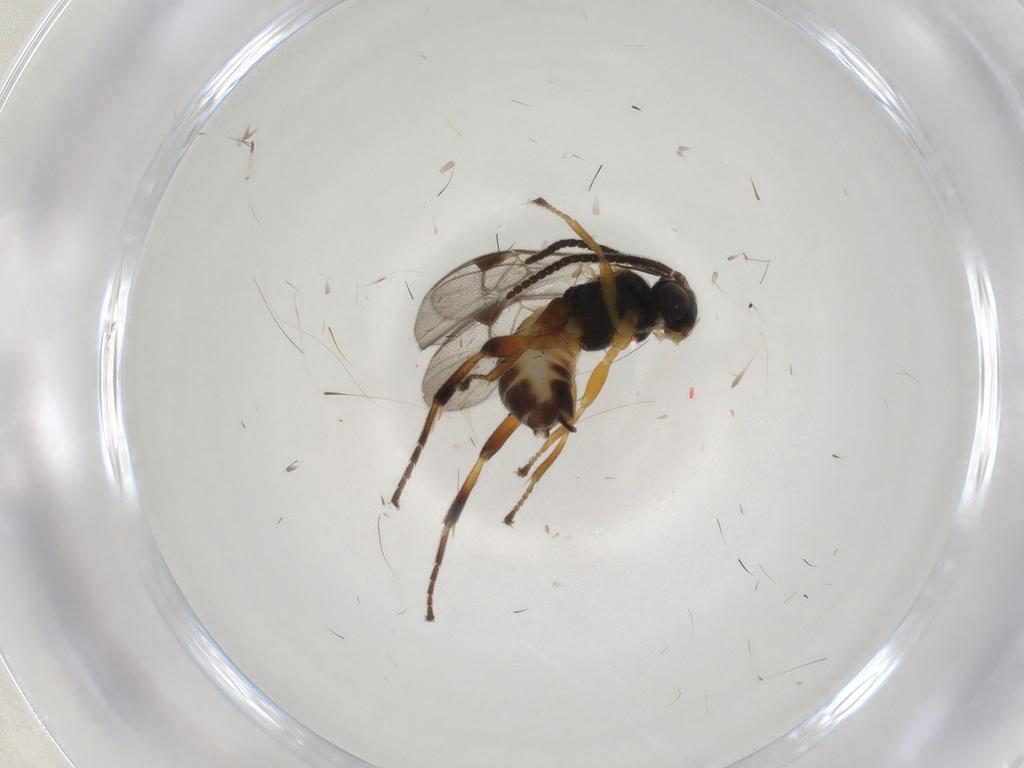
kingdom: Animalia
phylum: Arthropoda
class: Insecta
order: Hymenoptera
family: Braconidae
